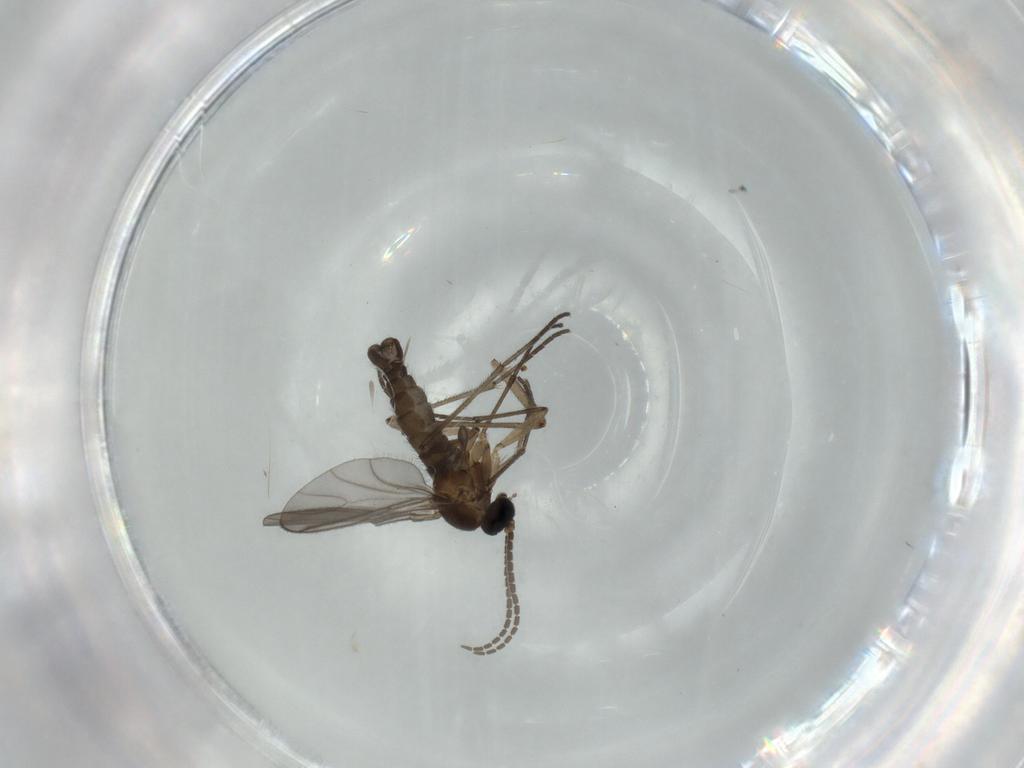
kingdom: Animalia
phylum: Arthropoda
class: Insecta
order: Diptera
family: Sciaridae
